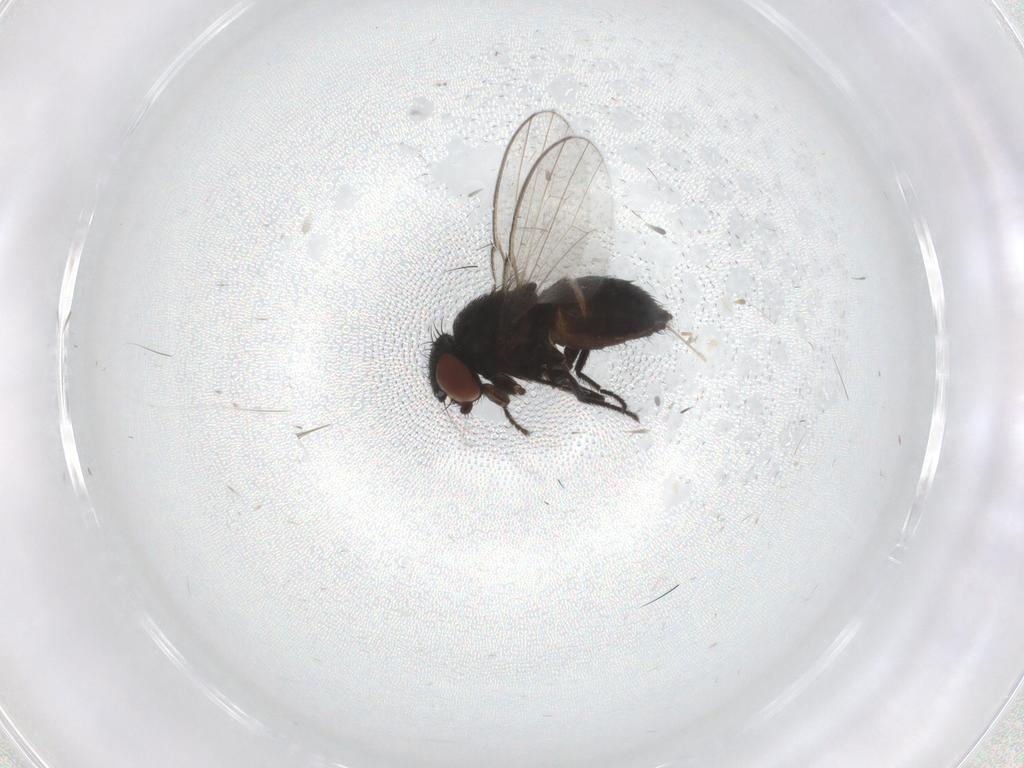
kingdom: Animalia
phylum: Arthropoda
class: Insecta
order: Diptera
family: Milichiidae
